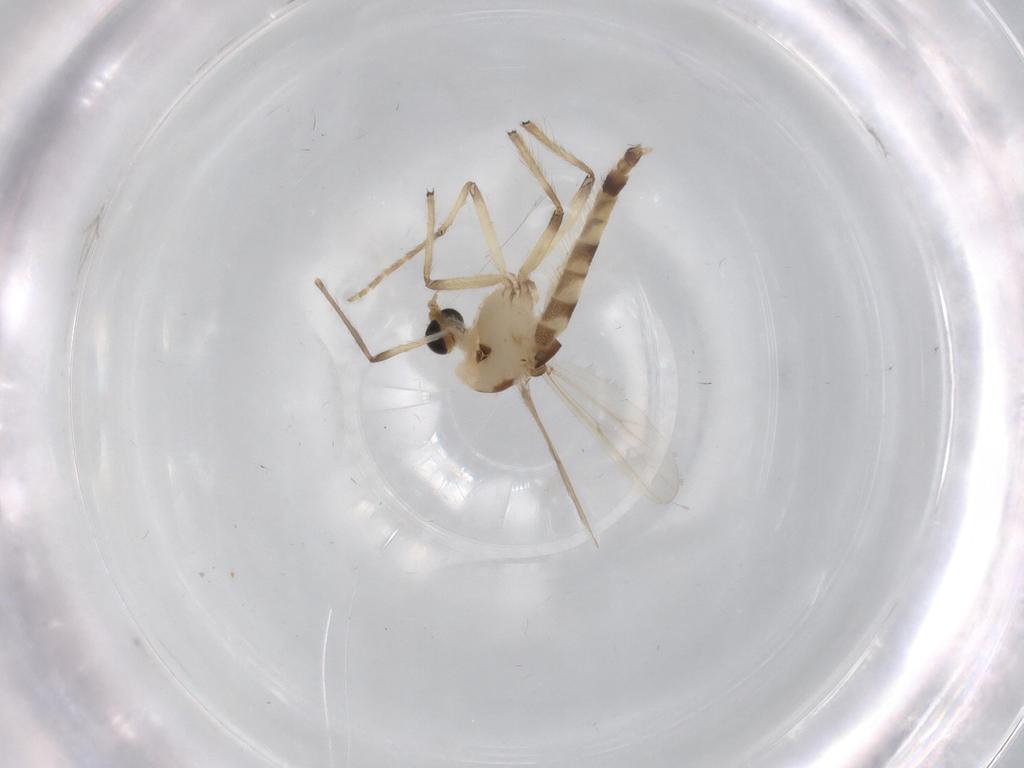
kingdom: Animalia
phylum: Arthropoda
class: Insecta
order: Diptera
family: Chironomidae
